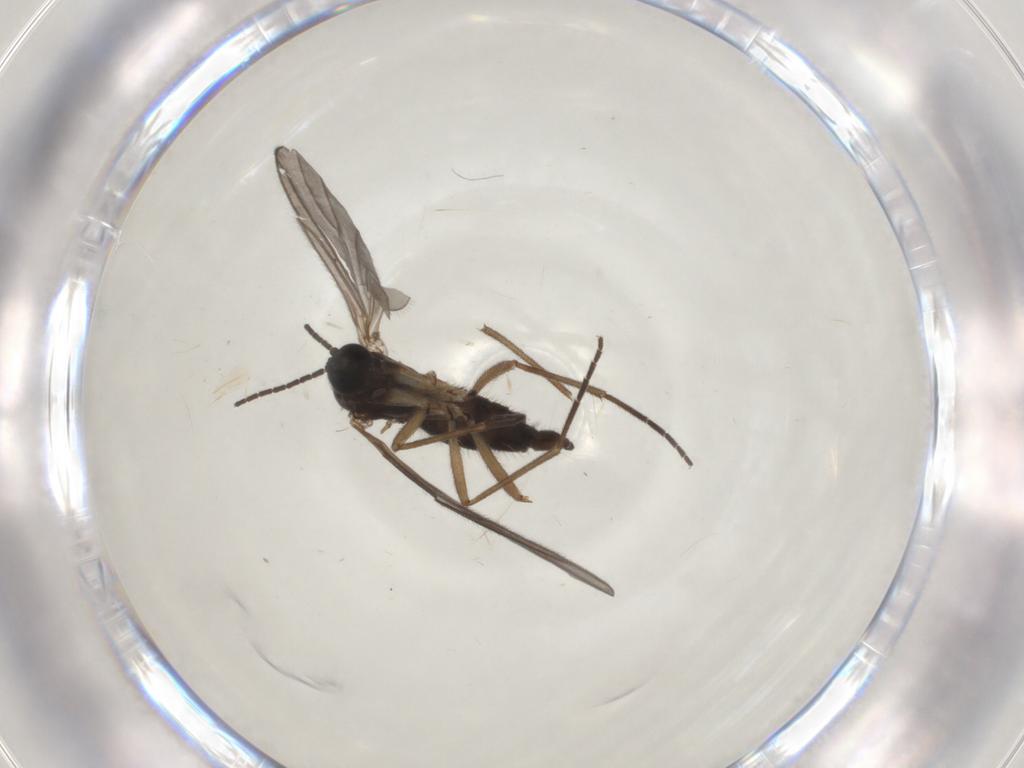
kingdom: Animalia
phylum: Arthropoda
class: Insecta
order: Diptera
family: Sciaridae
